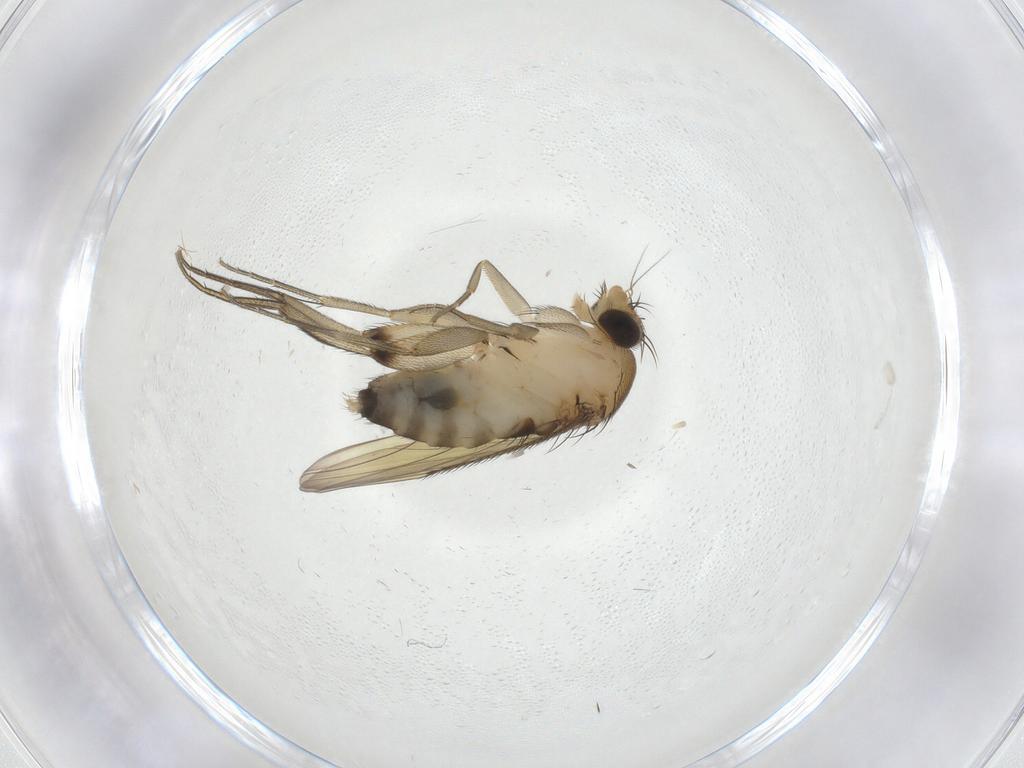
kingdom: Animalia
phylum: Arthropoda
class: Insecta
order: Diptera
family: Phoridae
